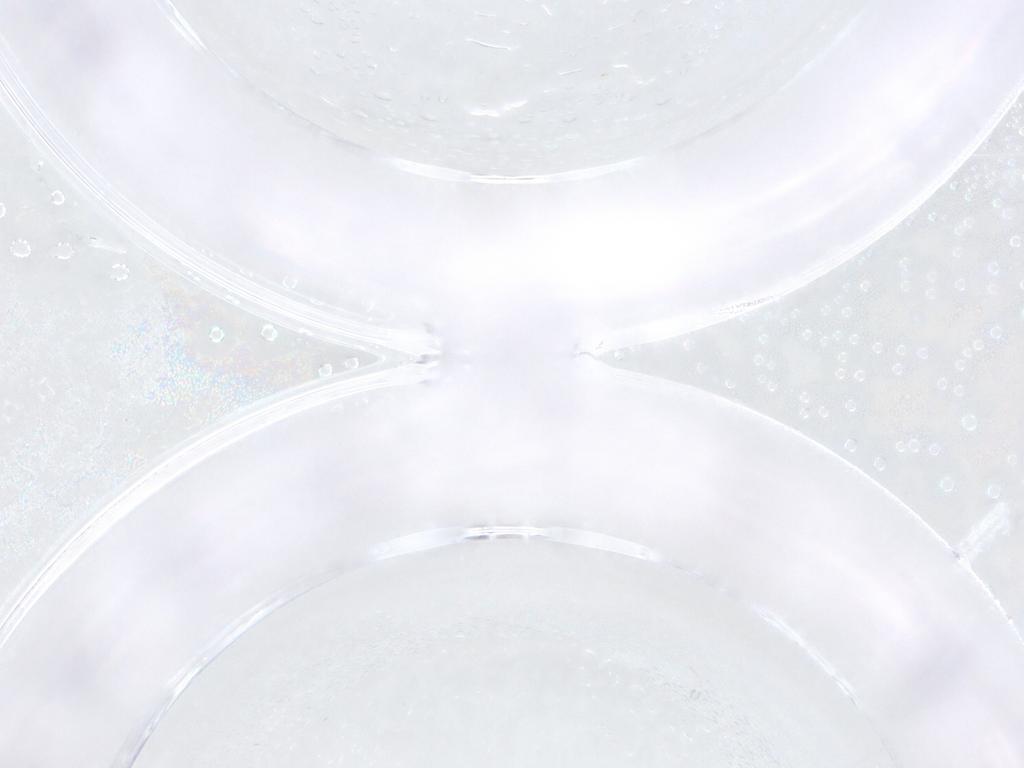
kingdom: Animalia
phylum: Arthropoda
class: Insecta
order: Diptera
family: Ceratopogonidae
